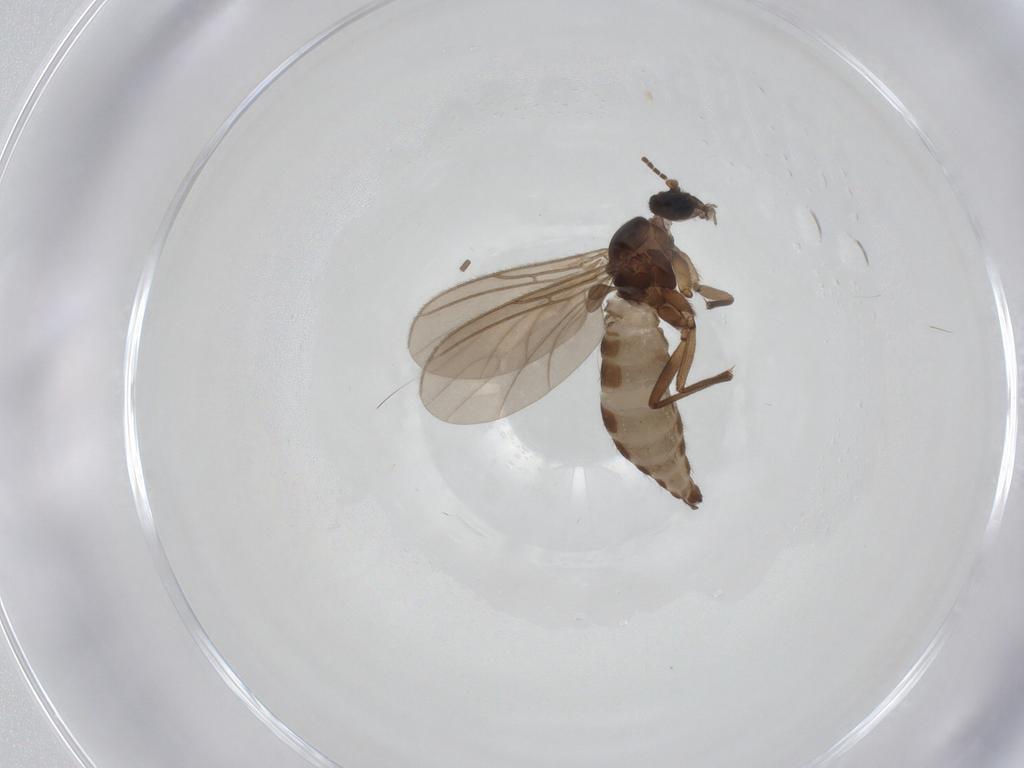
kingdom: Animalia
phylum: Arthropoda
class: Insecta
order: Diptera
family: Sciaridae
